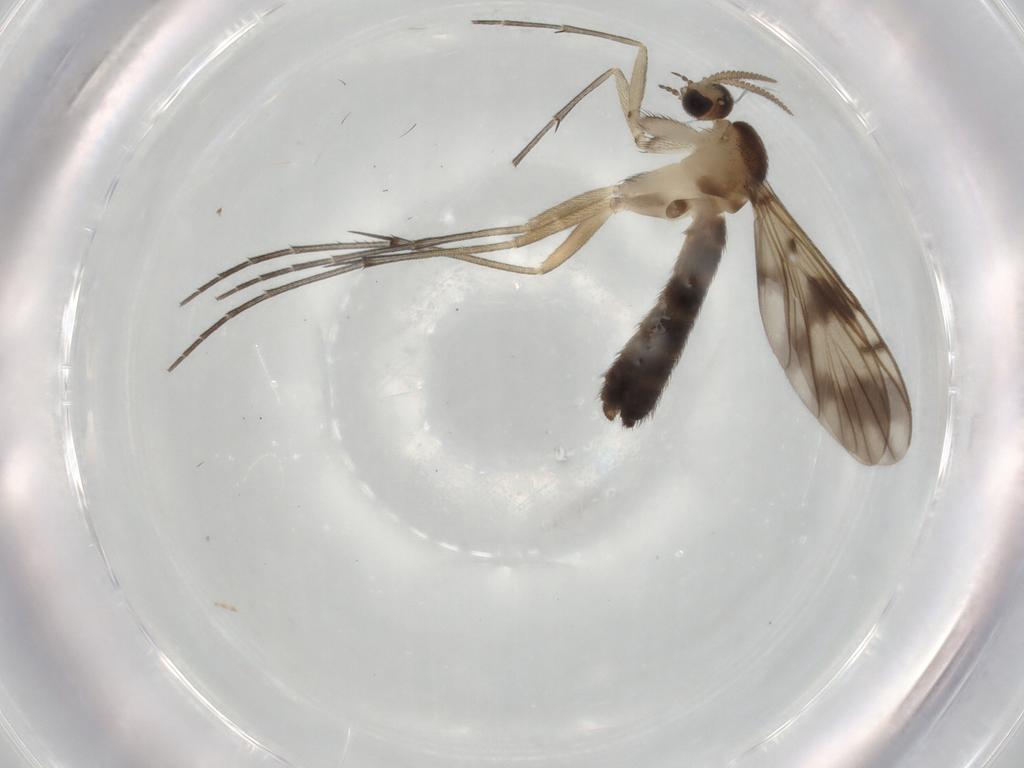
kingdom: Animalia
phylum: Arthropoda
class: Insecta
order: Diptera
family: Keroplatidae
